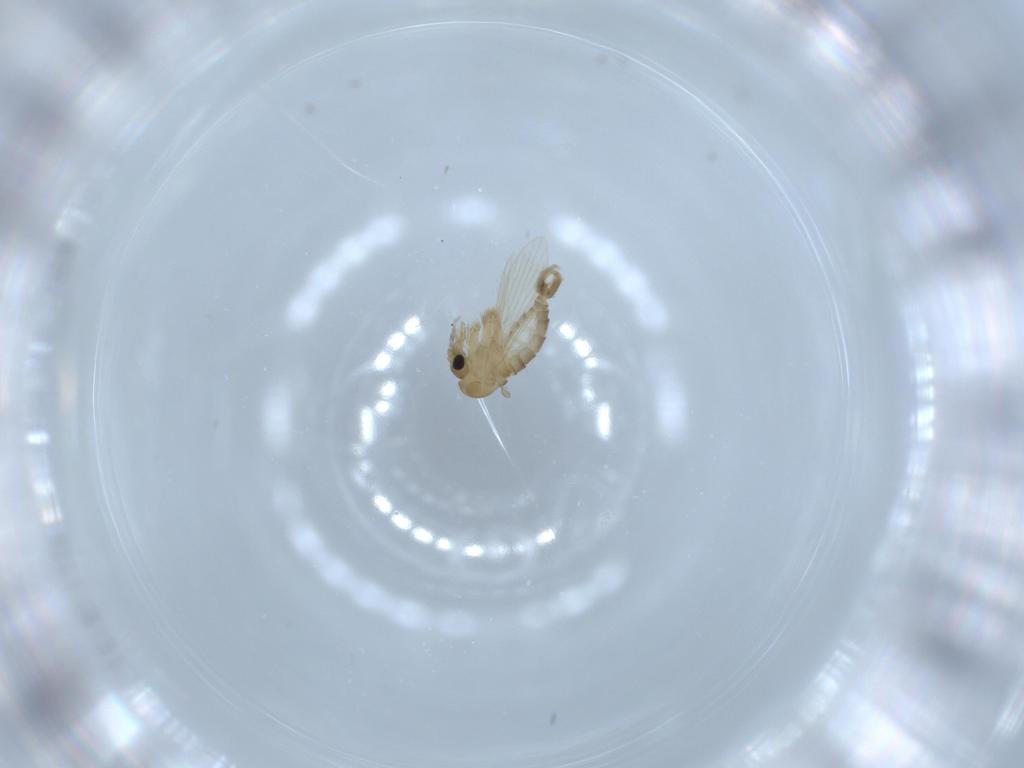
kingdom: Animalia
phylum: Arthropoda
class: Insecta
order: Diptera
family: Psychodidae
